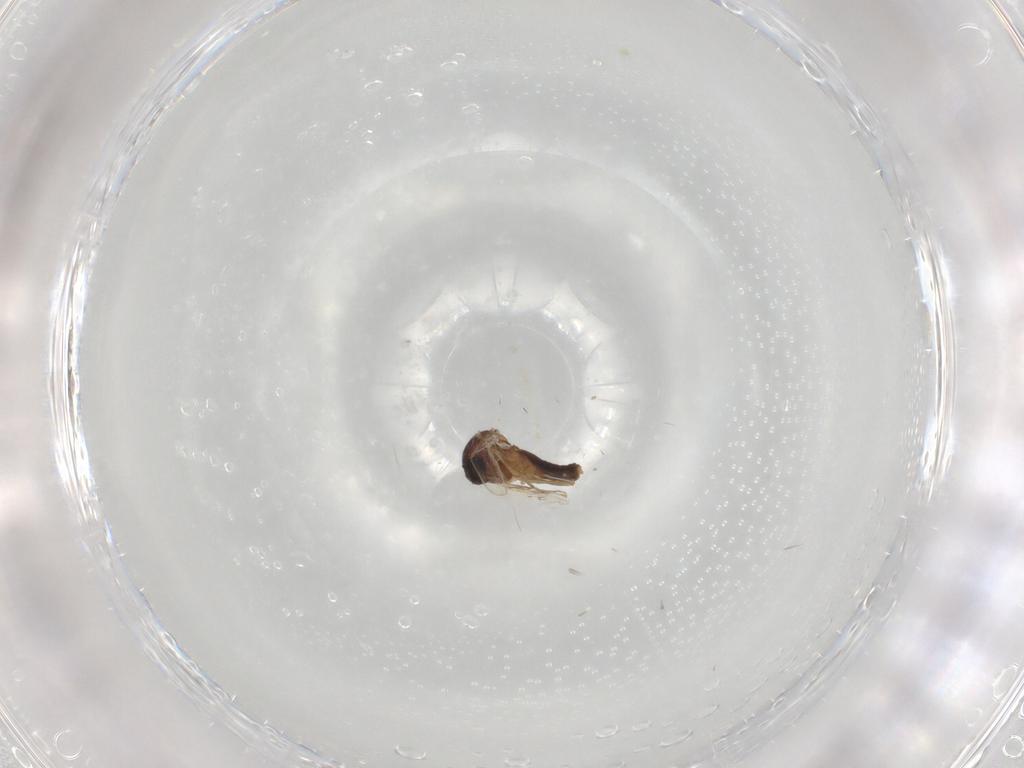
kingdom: Animalia
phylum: Arthropoda
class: Insecta
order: Diptera
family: Ceratopogonidae
